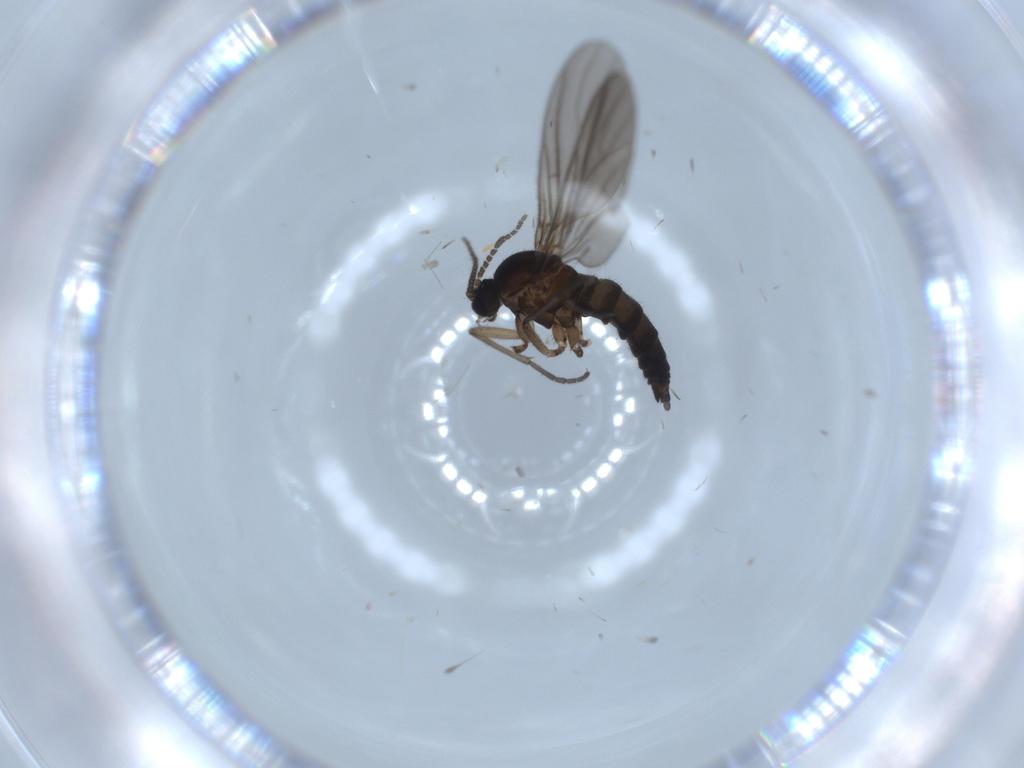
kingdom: Animalia
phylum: Arthropoda
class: Insecta
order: Diptera
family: Sciaridae
